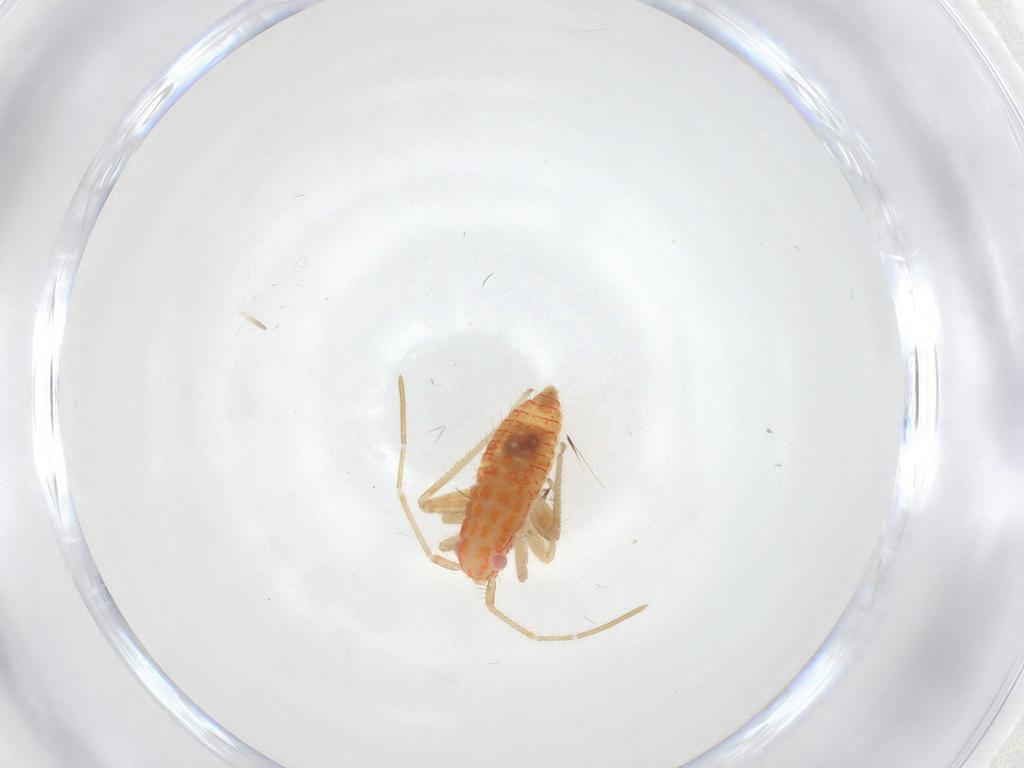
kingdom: Animalia
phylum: Arthropoda
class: Insecta
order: Hemiptera
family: Miridae
